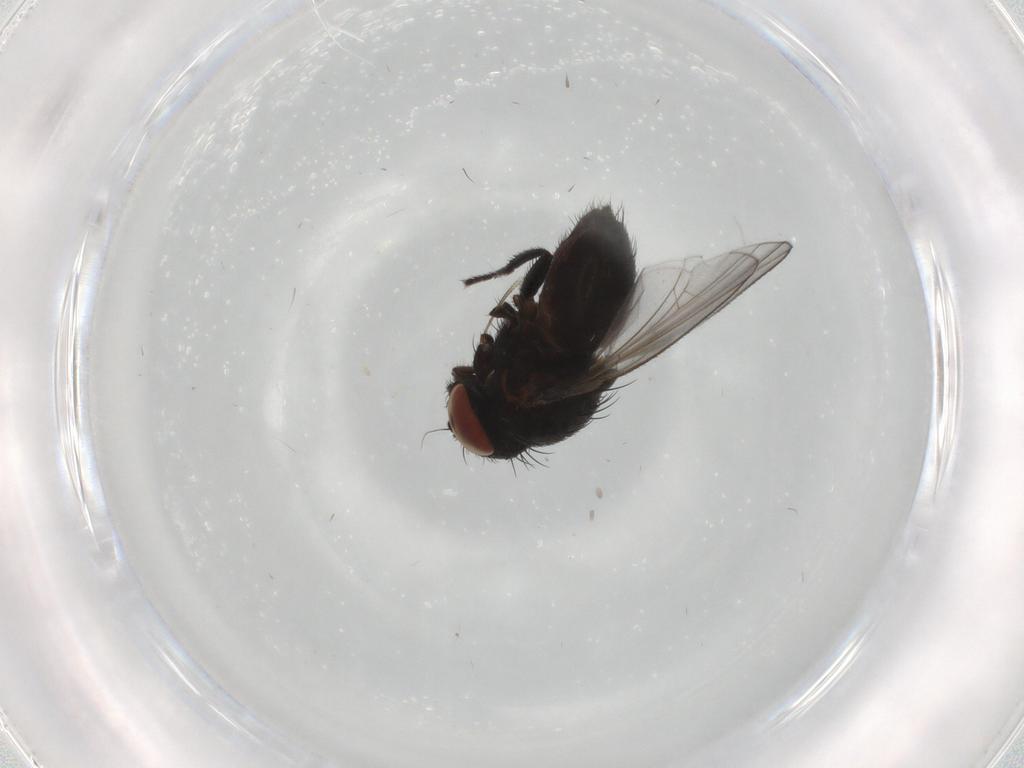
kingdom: Animalia
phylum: Arthropoda
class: Insecta
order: Diptera
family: Milichiidae
